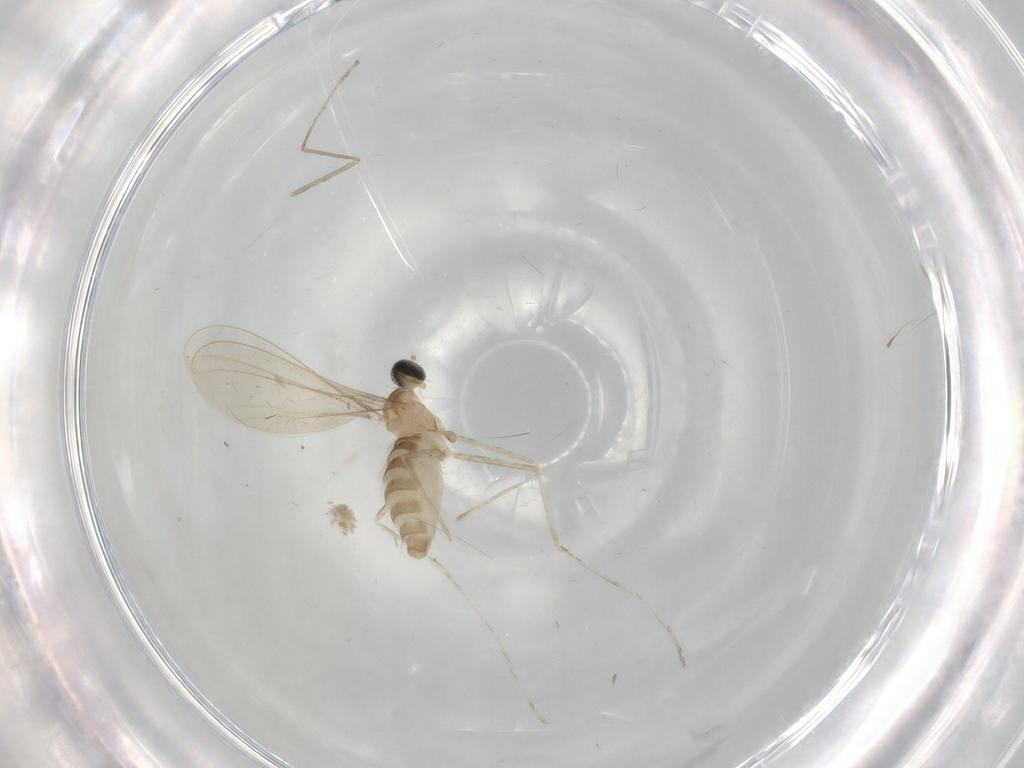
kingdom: Animalia
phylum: Arthropoda
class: Insecta
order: Diptera
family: Cecidomyiidae
